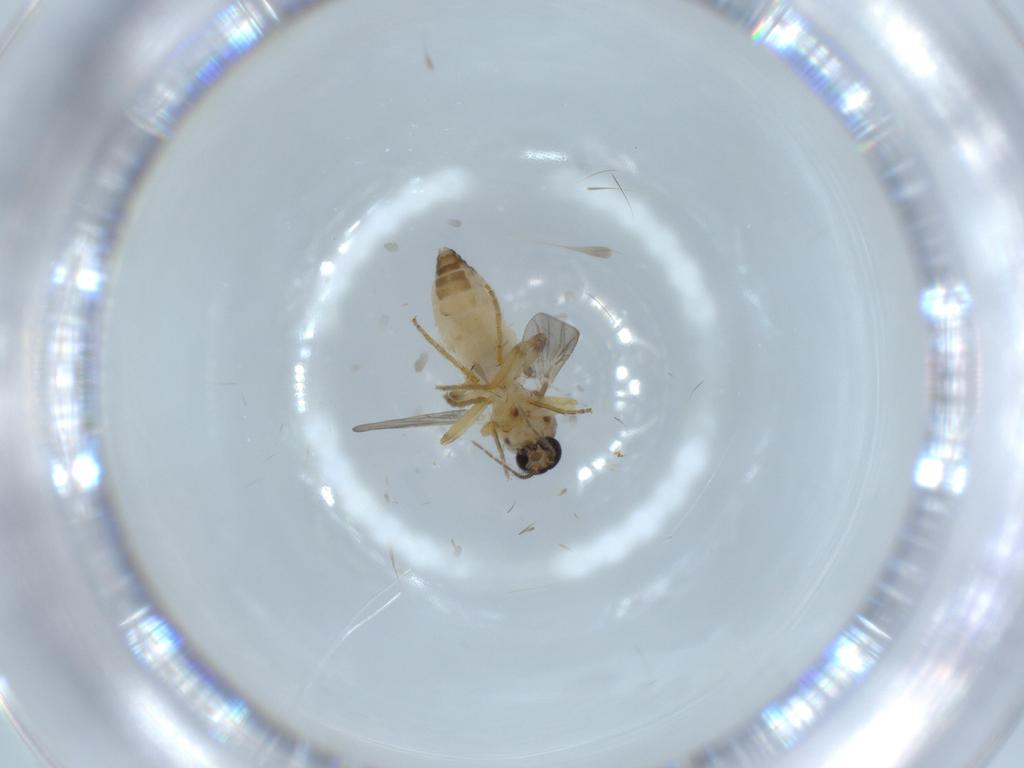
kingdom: Animalia
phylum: Arthropoda
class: Insecta
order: Diptera
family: Ceratopogonidae
